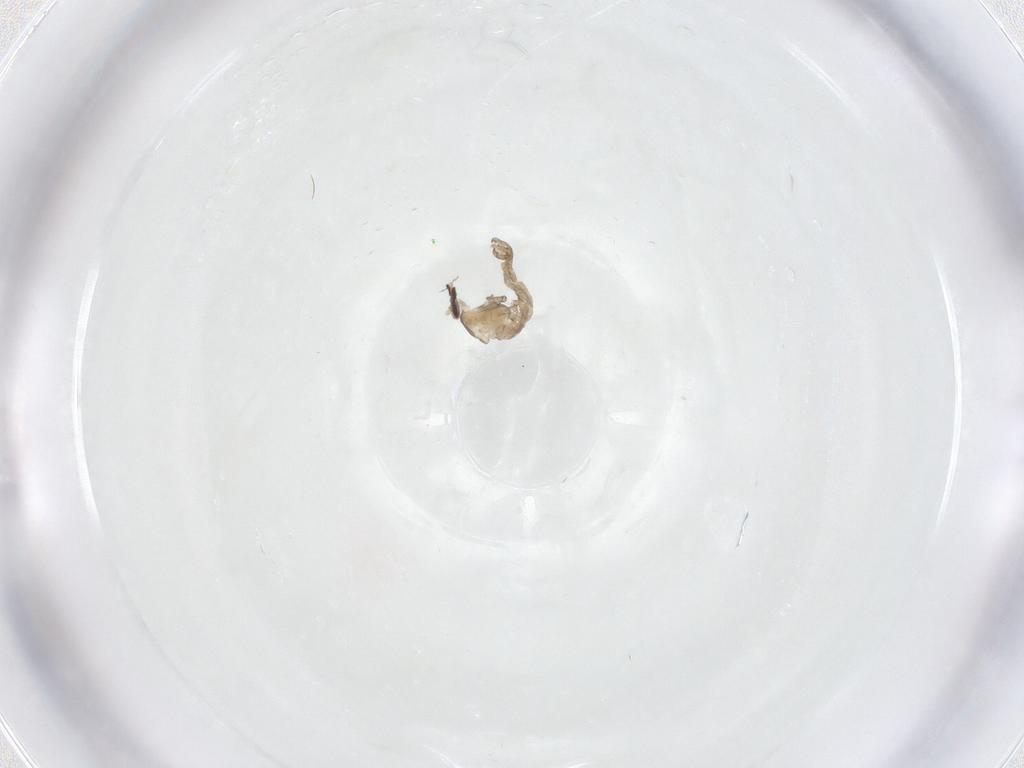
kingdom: Animalia
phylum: Arthropoda
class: Insecta
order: Diptera
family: Cecidomyiidae
